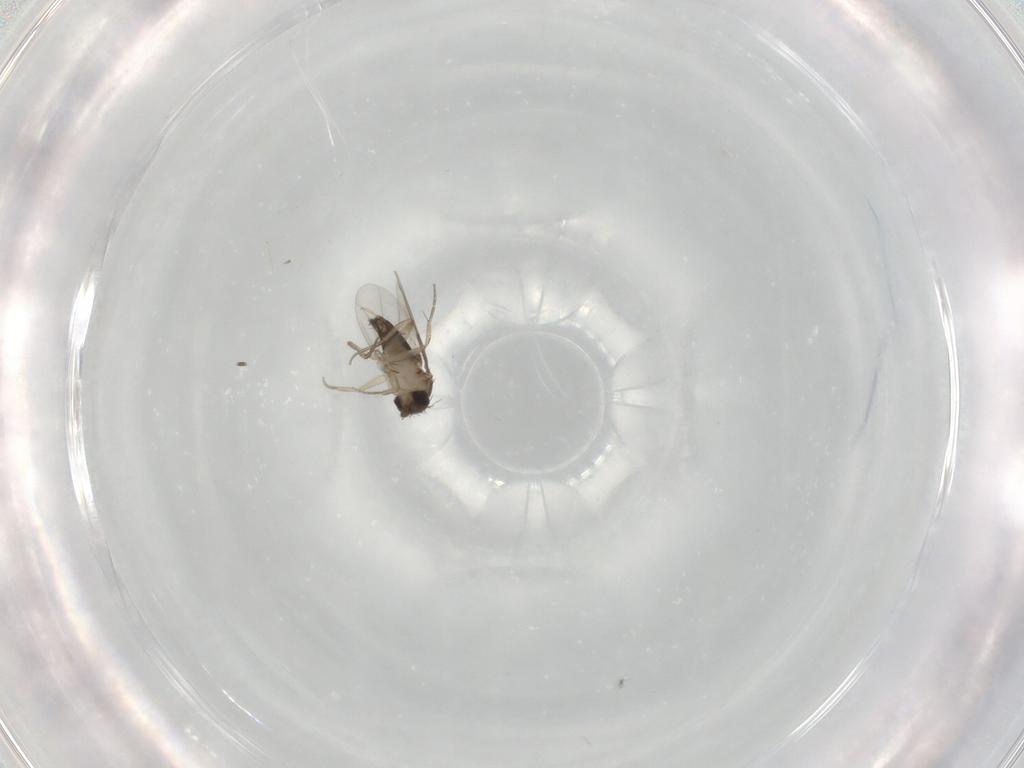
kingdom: Animalia
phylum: Arthropoda
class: Insecta
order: Diptera
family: Phoridae
